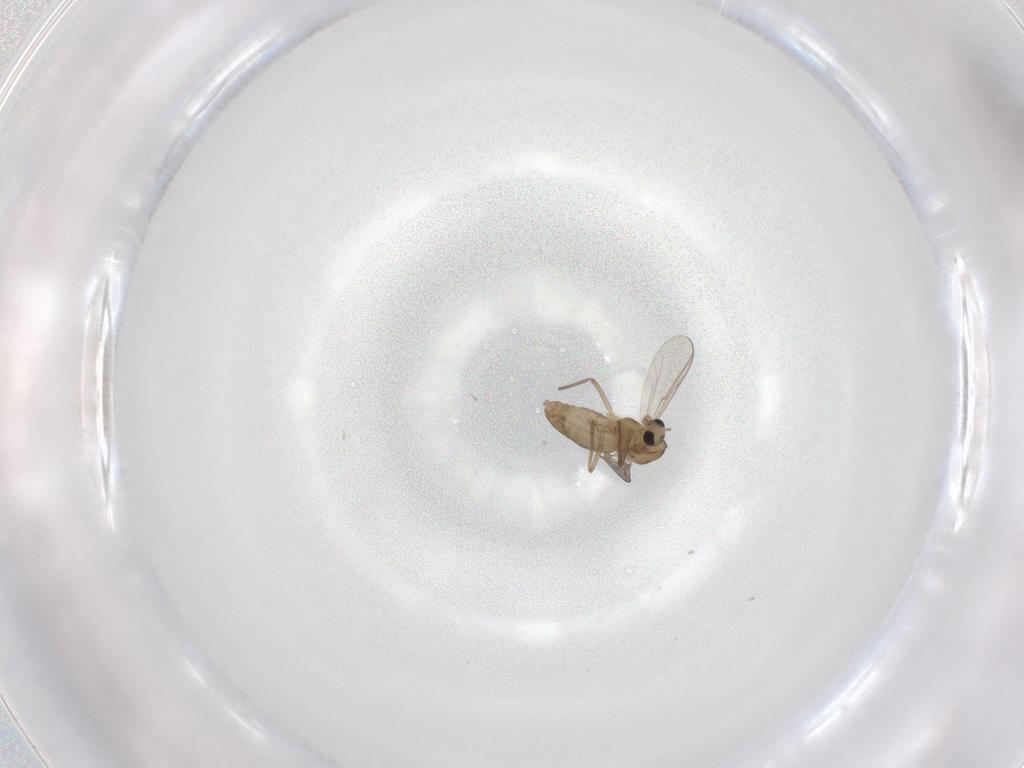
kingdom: Animalia
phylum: Arthropoda
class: Insecta
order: Diptera
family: Chironomidae
